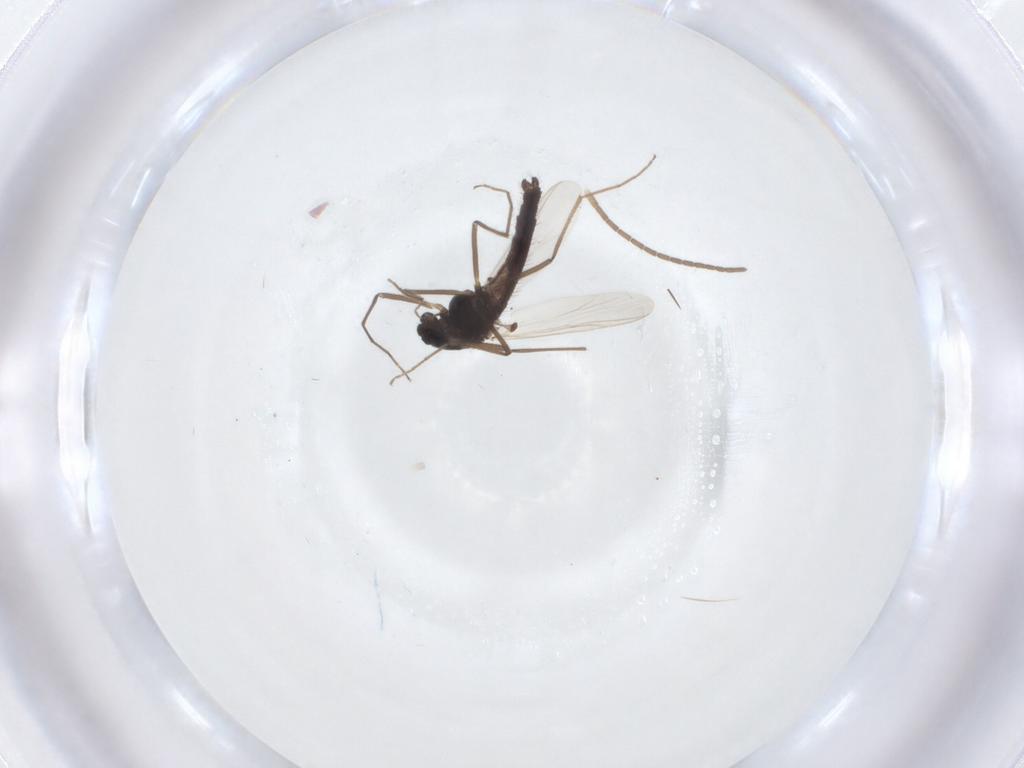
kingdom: Animalia
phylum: Arthropoda
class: Insecta
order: Diptera
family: Chironomidae
